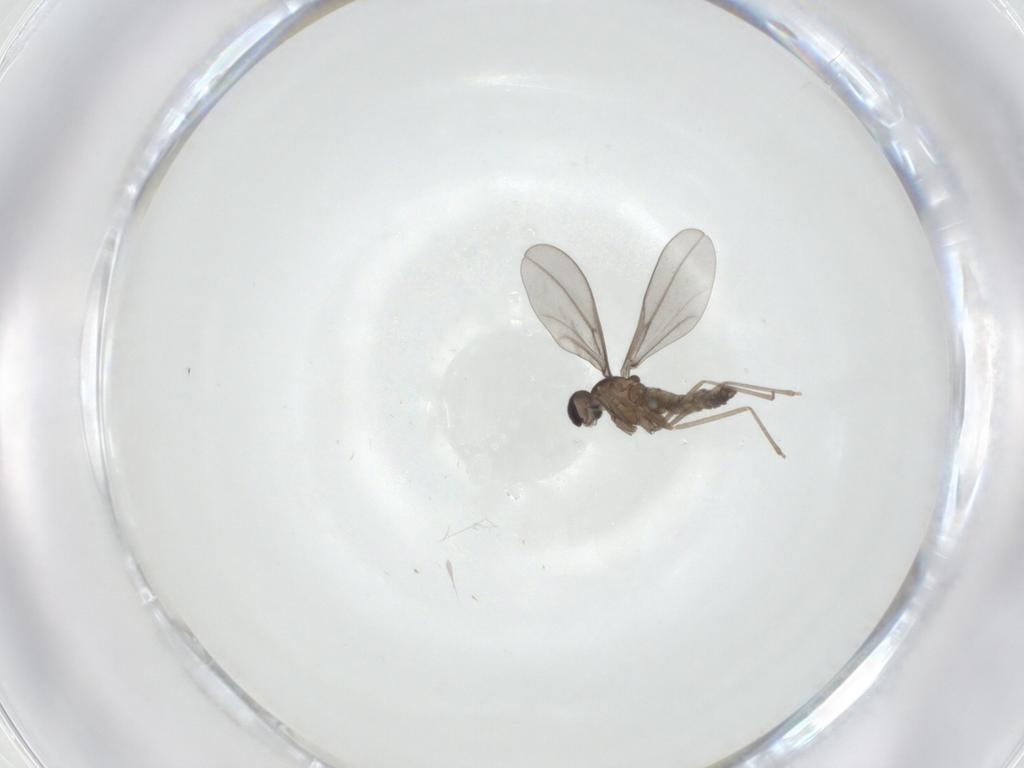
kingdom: Animalia
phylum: Arthropoda
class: Insecta
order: Diptera
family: Cecidomyiidae
